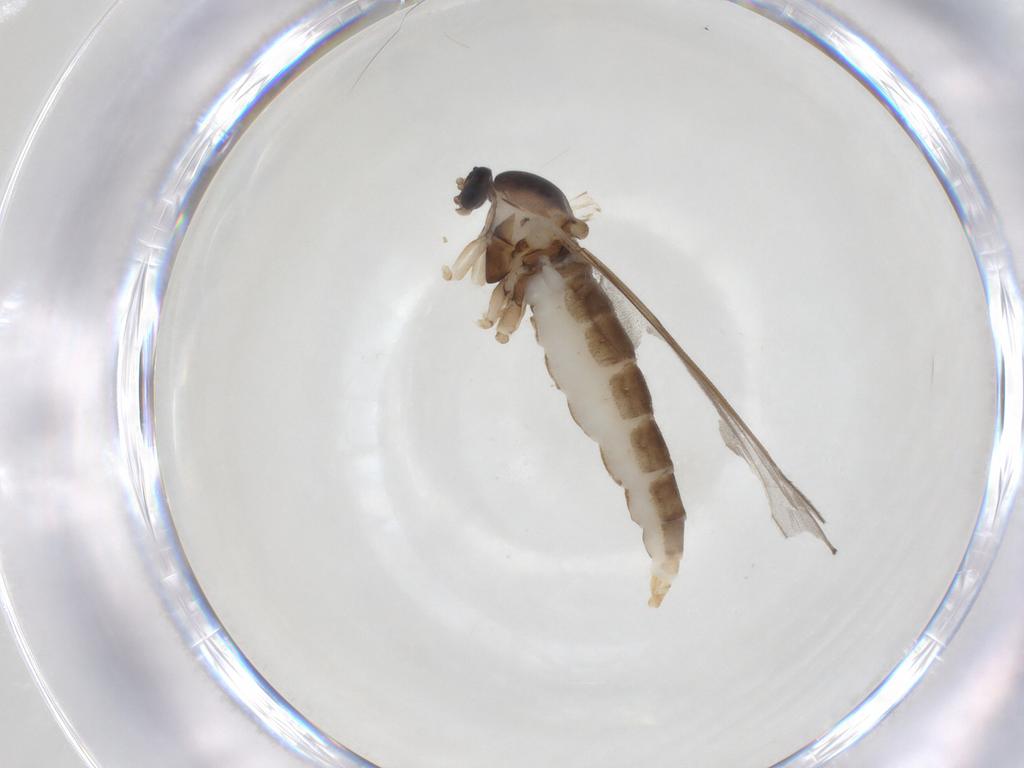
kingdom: Animalia
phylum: Arthropoda
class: Insecta
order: Diptera
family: Cecidomyiidae
